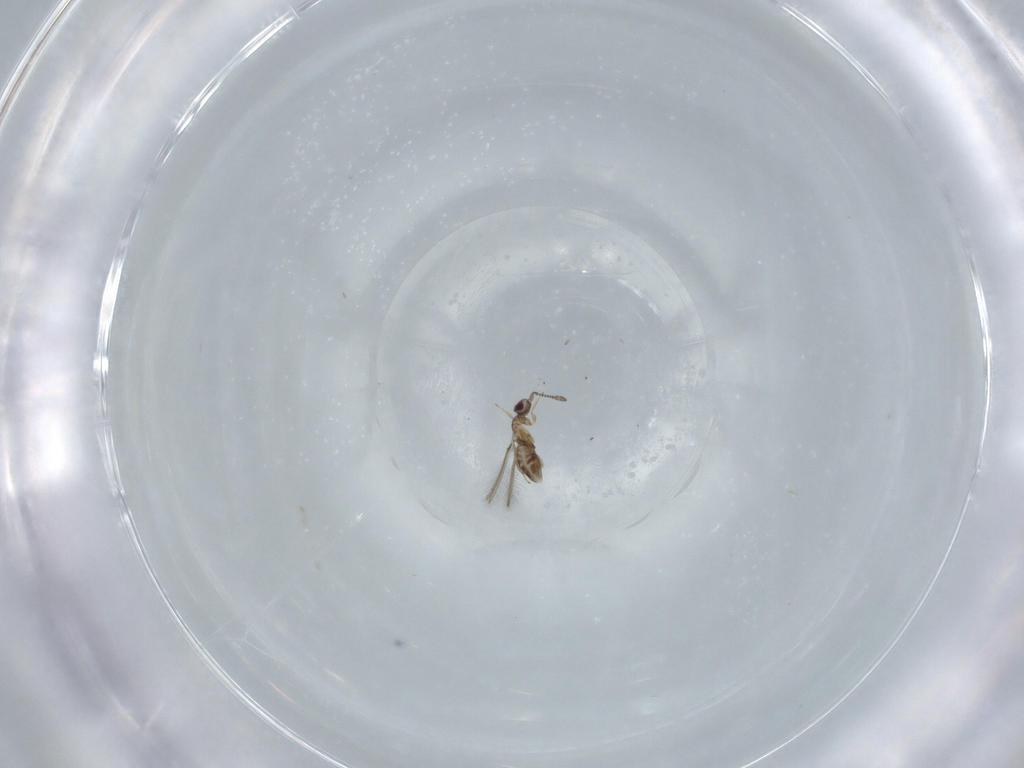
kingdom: Animalia
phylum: Arthropoda
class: Insecta
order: Hymenoptera
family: Mymaridae
